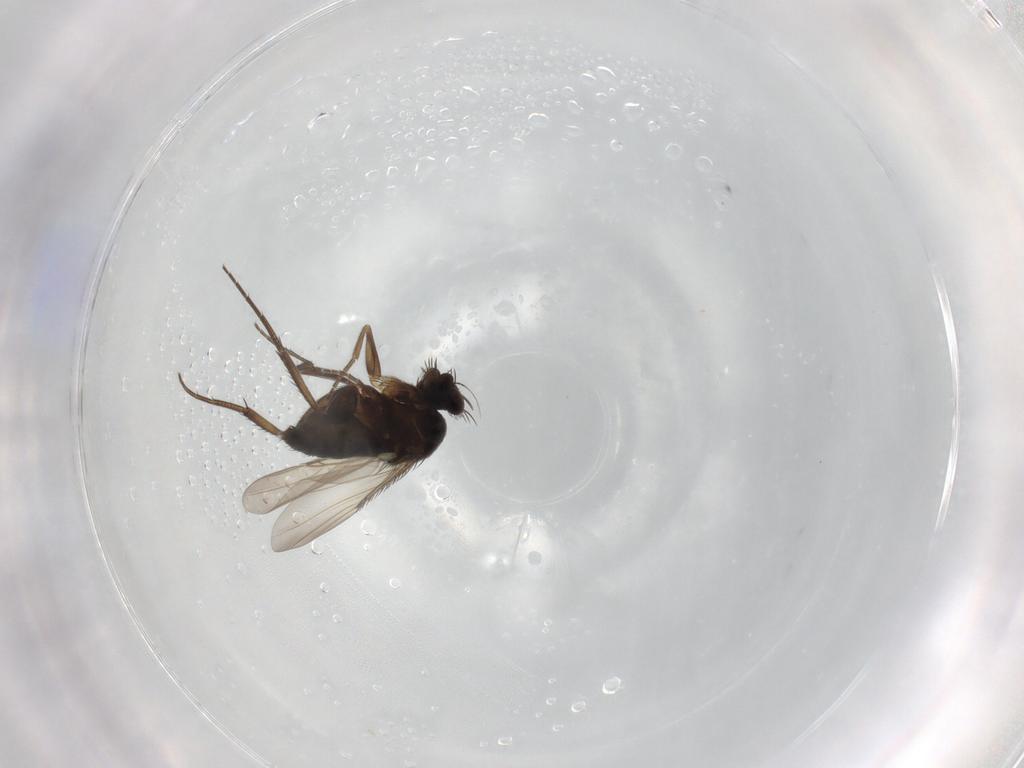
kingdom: Animalia
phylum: Arthropoda
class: Insecta
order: Diptera
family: Phoridae
